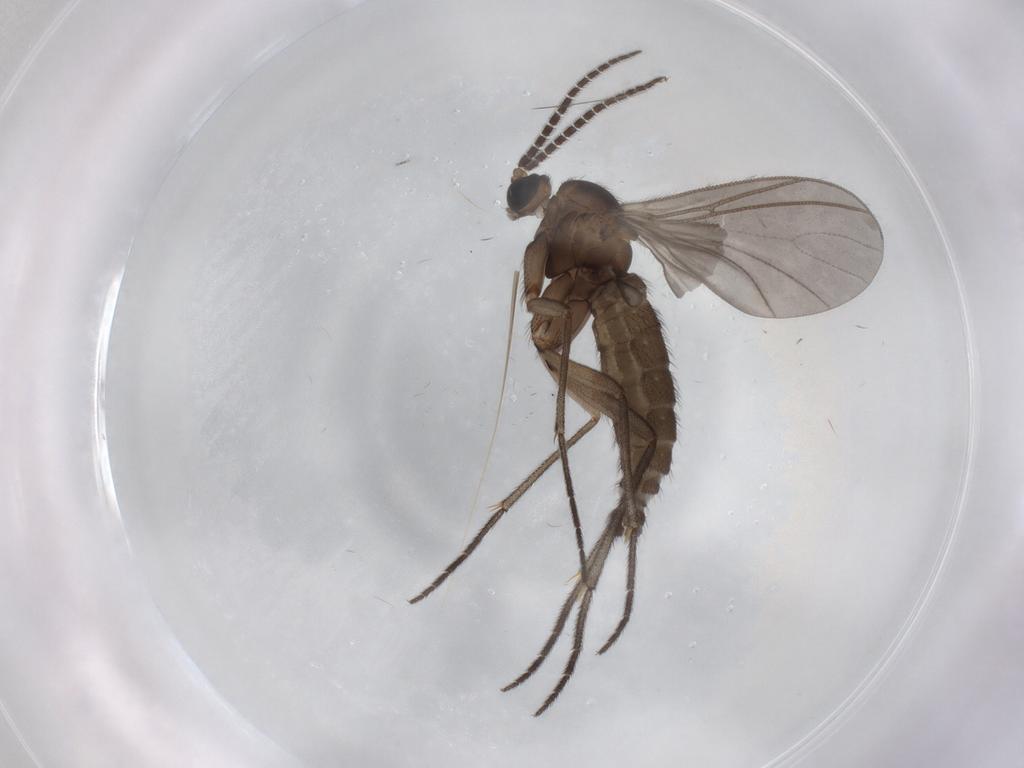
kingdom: Animalia
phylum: Arthropoda
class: Insecta
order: Diptera
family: Sciaridae
